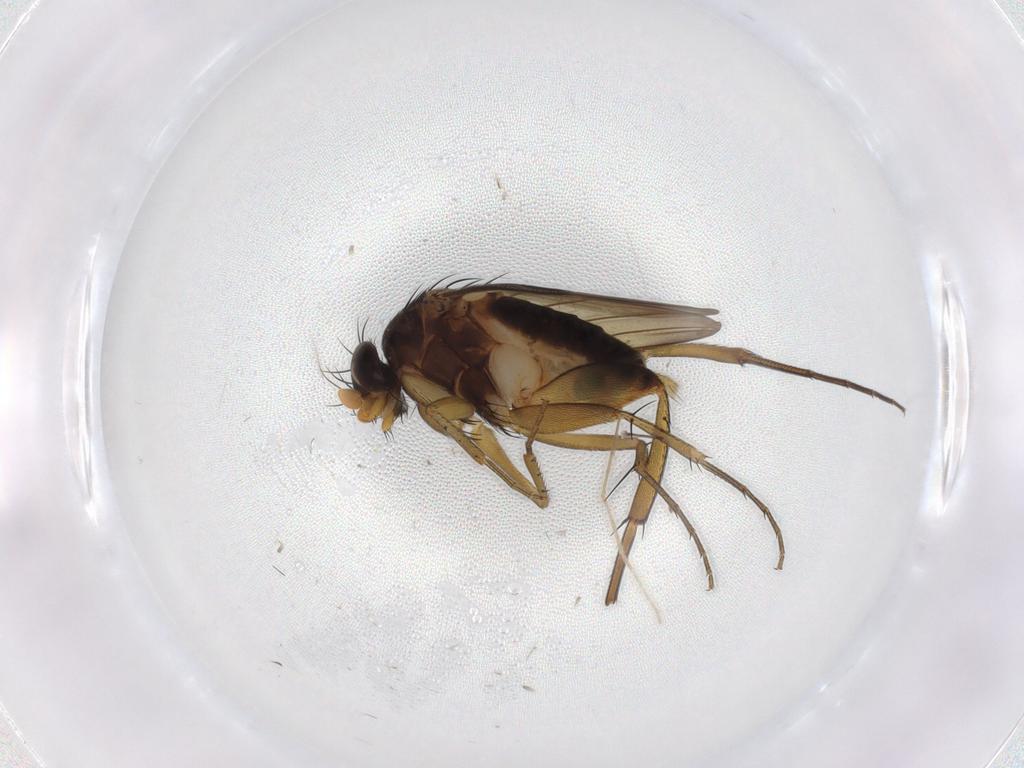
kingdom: Animalia
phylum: Arthropoda
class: Insecta
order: Diptera
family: Phoridae
